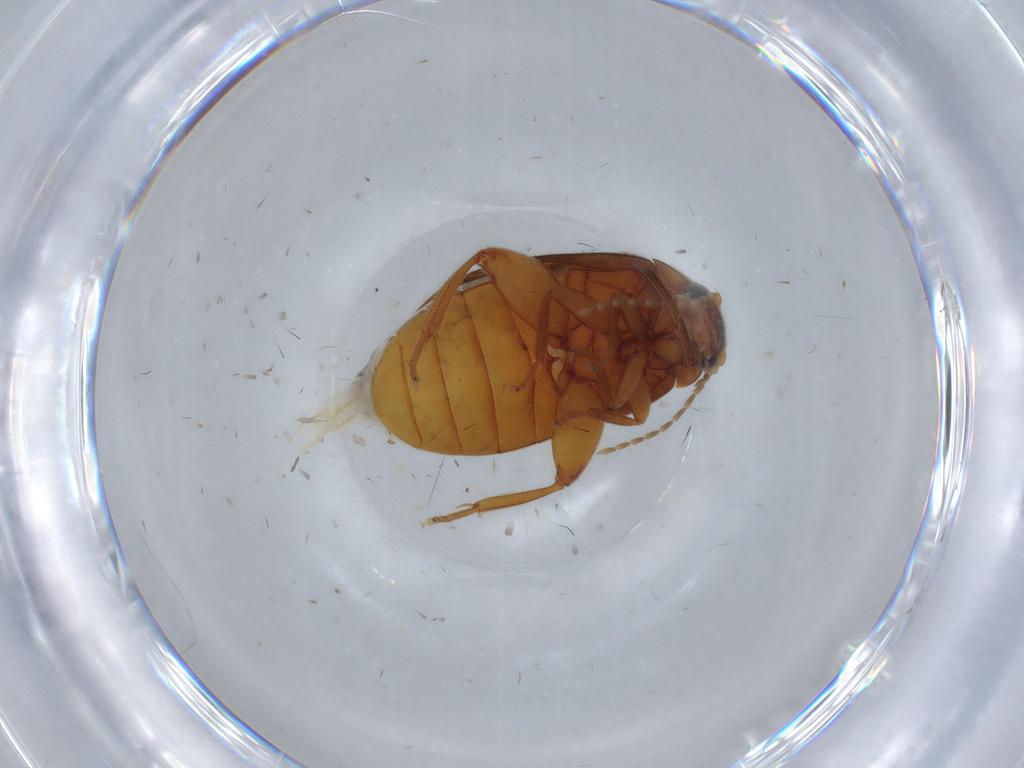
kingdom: Animalia
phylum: Arthropoda
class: Insecta
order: Coleoptera
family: Scirtidae
